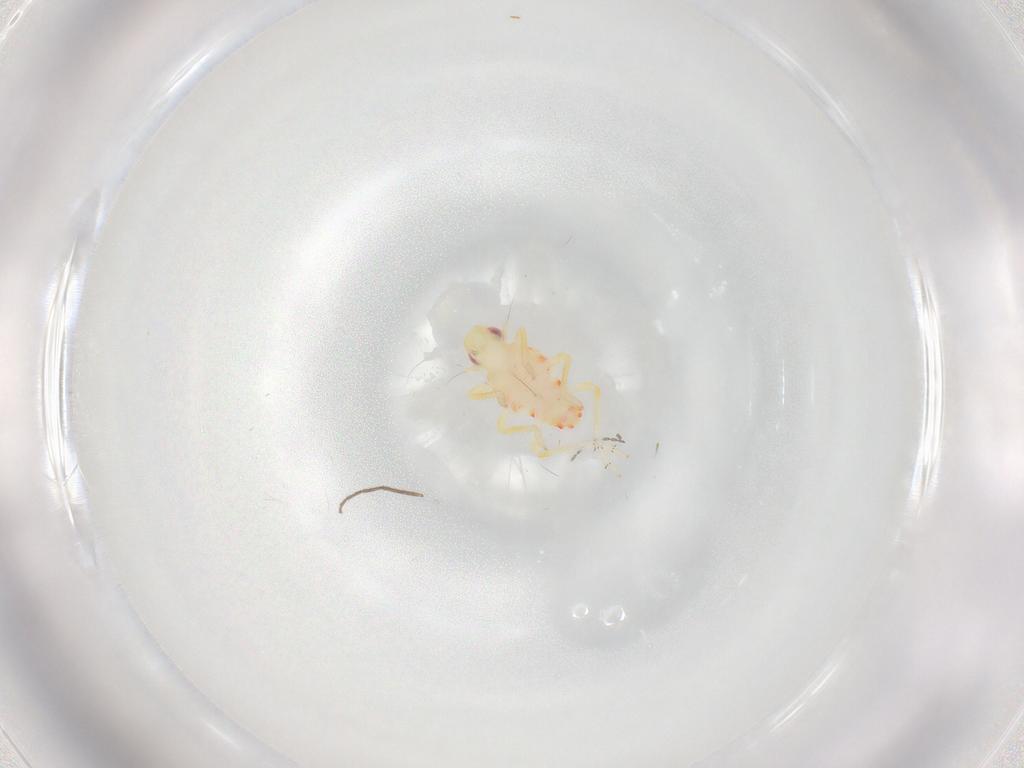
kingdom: Animalia
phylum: Arthropoda
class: Insecta
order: Hemiptera
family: Tropiduchidae
